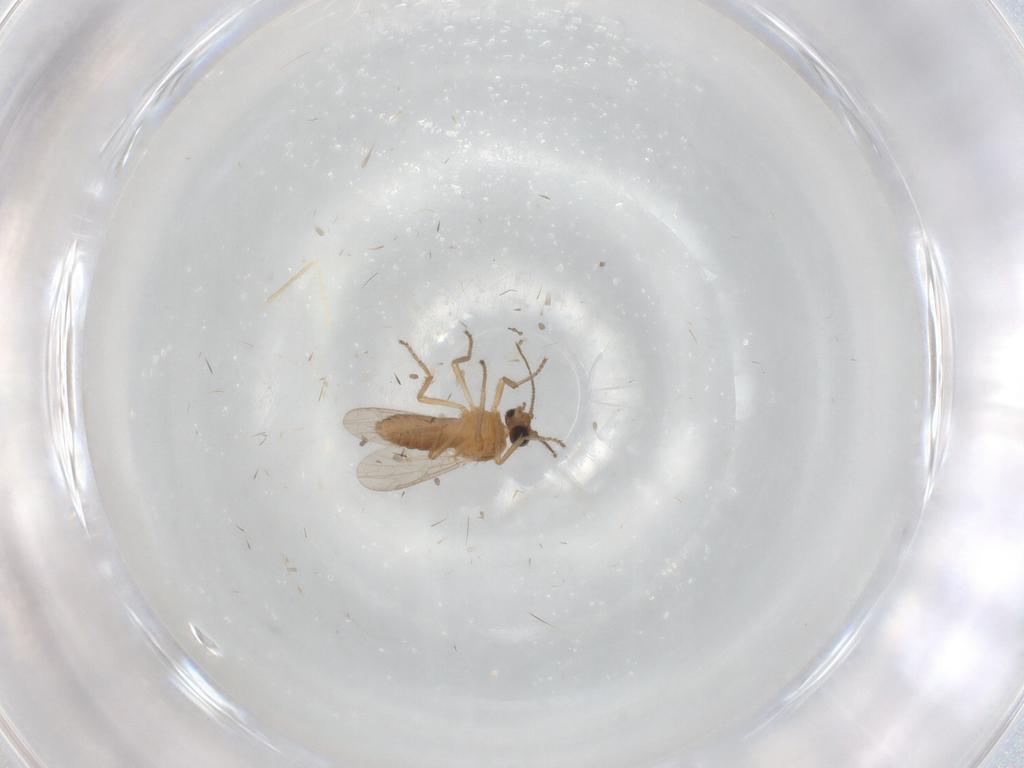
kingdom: Animalia
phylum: Arthropoda
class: Insecta
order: Diptera
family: Ceratopogonidae
